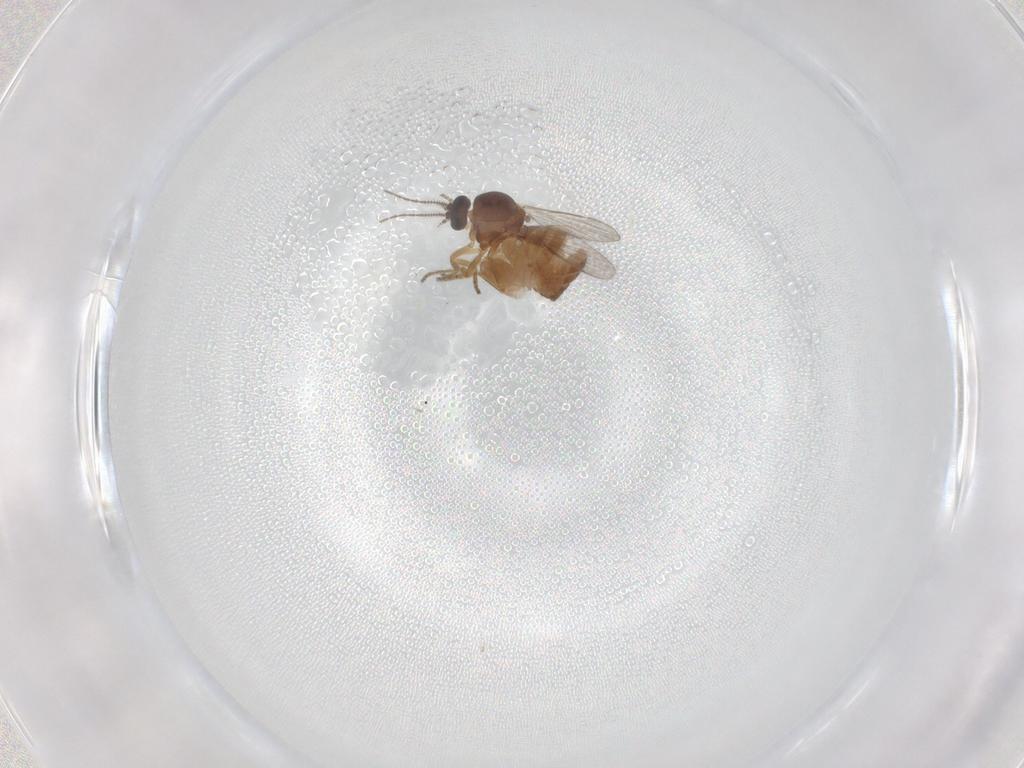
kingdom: Animalia
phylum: Arthropoda
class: Insecta
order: Diptera
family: Ceratopogonidae
